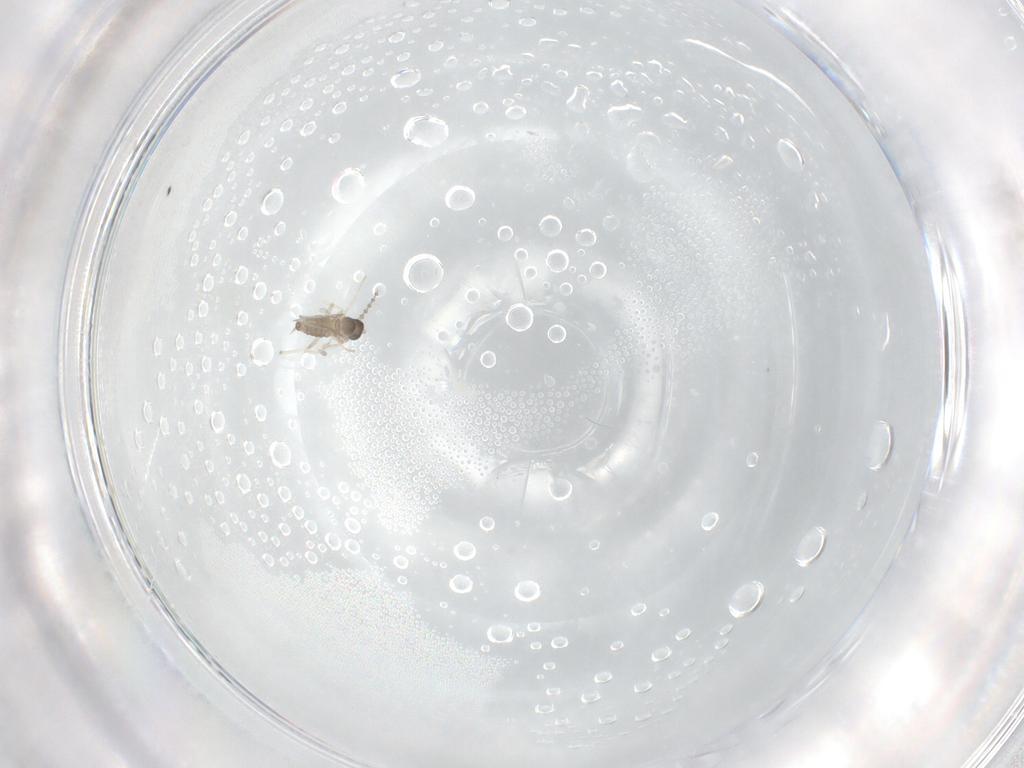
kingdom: Animalia
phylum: Arthropoda
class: Insecta
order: Diptera
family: Cecidomyiidae
